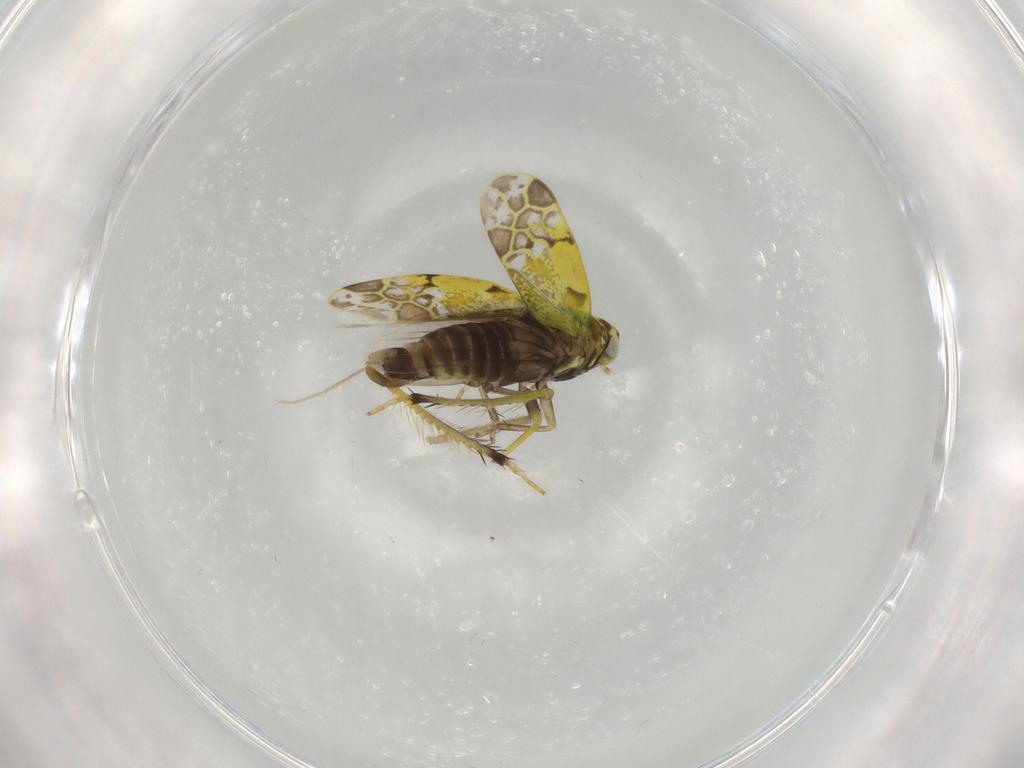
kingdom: Animalia
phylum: Arthropoda
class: Insecta
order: Hemiptera
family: Cicadellidae
